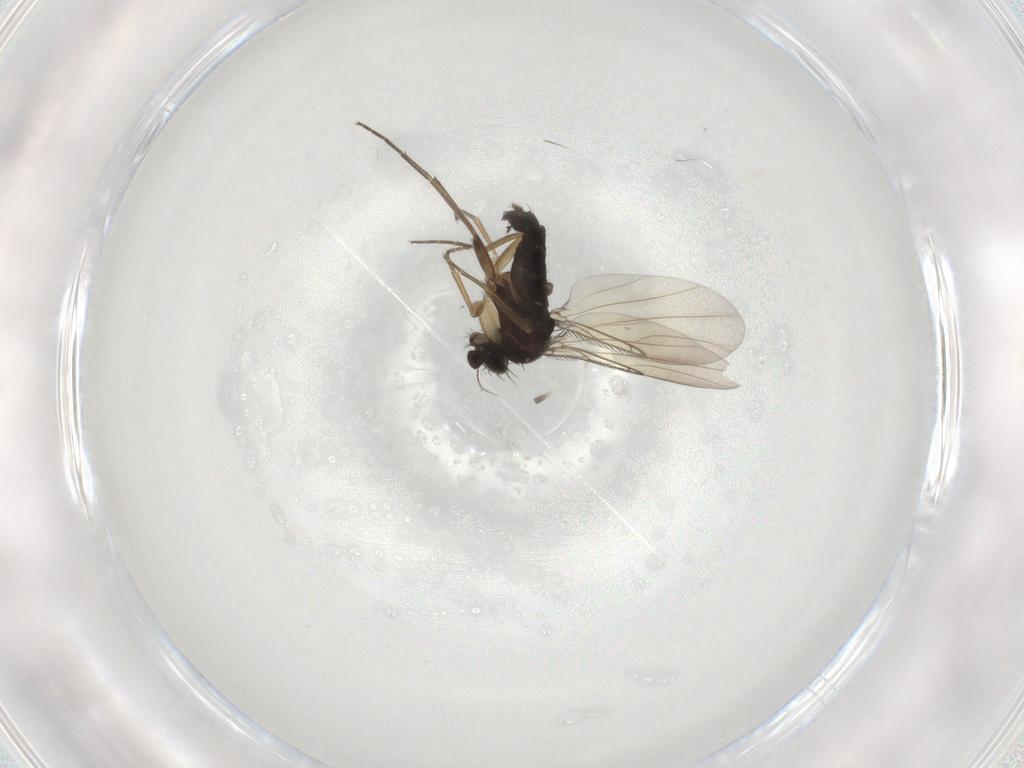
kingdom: Animalia
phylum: Arthropoda
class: Insecta
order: Diptera
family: Phoridae
